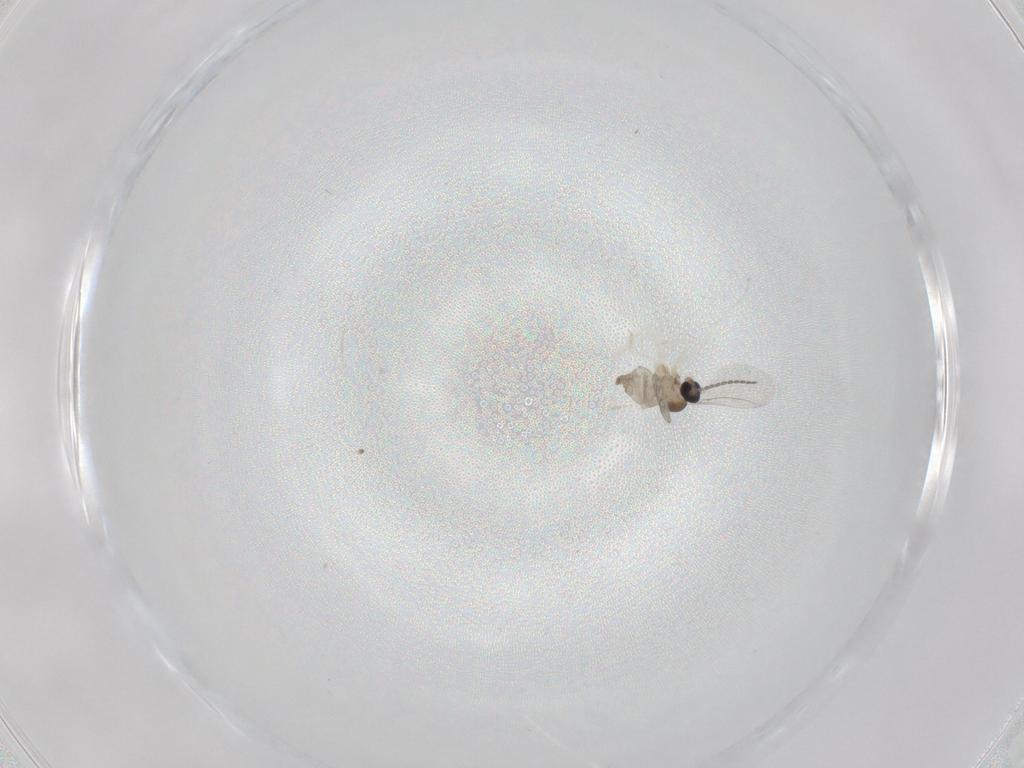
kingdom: Animalia
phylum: Arthropoda
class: Insecta
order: Diptera
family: Cecidomyiidae
